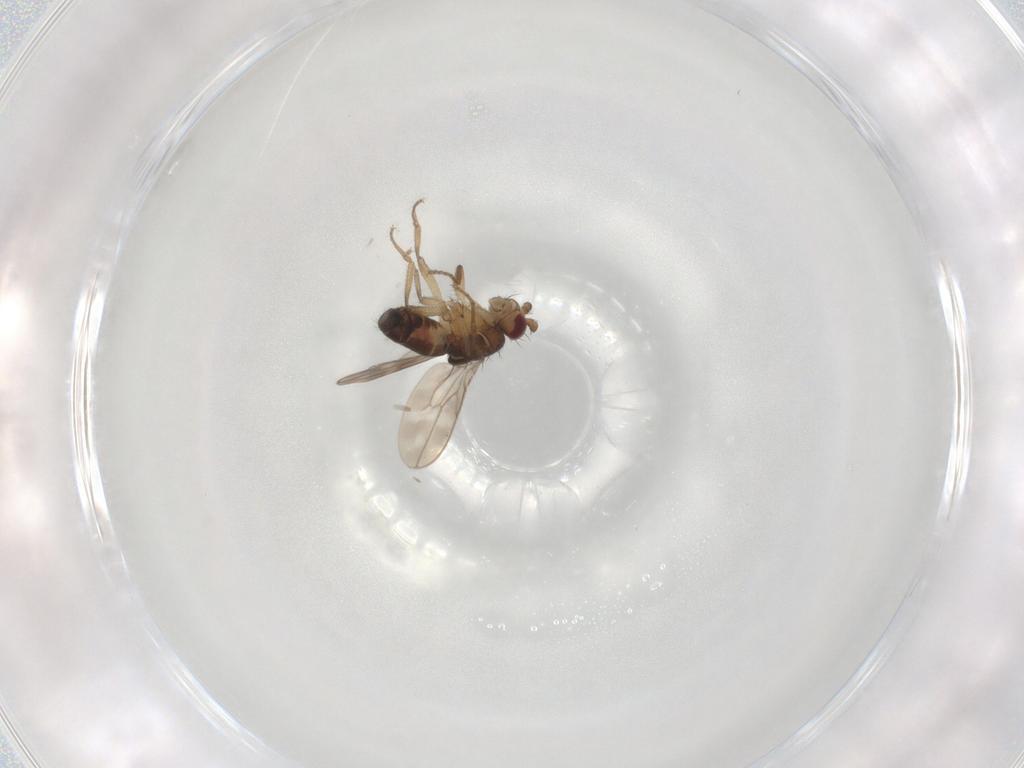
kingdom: Animalia
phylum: Arthropoda
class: Insecta
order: Diptera
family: Sphaeroceridae
